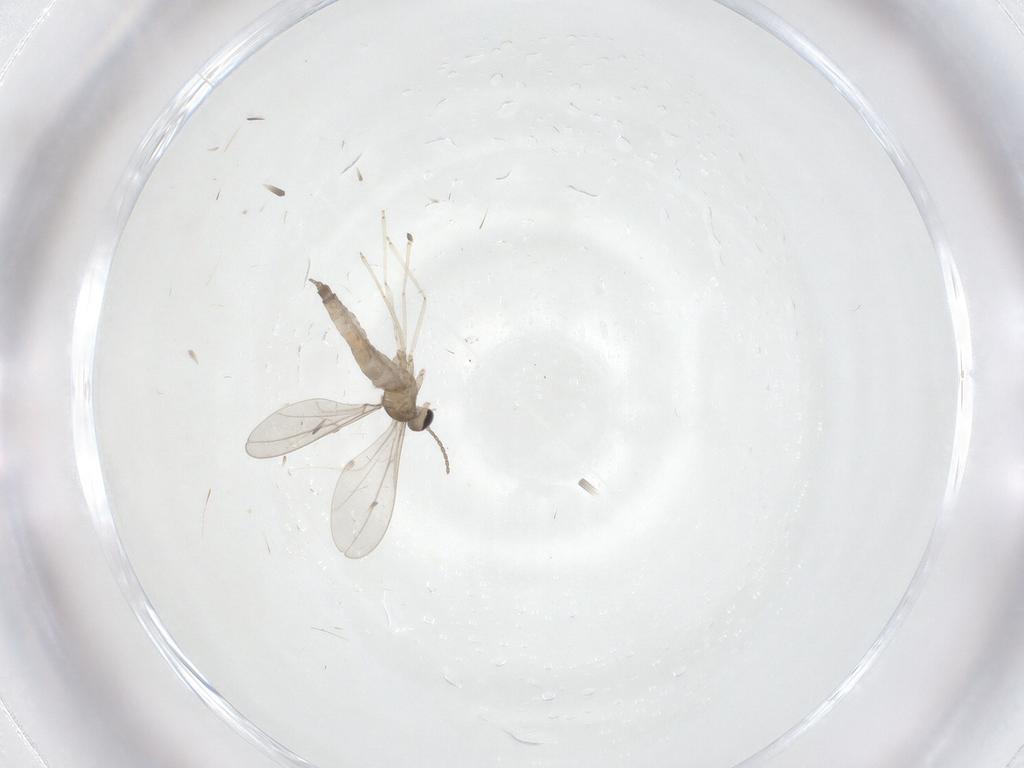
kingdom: Animalia
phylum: Arthropoda
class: Insecta
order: Diptera
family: Cecidomyiidae
